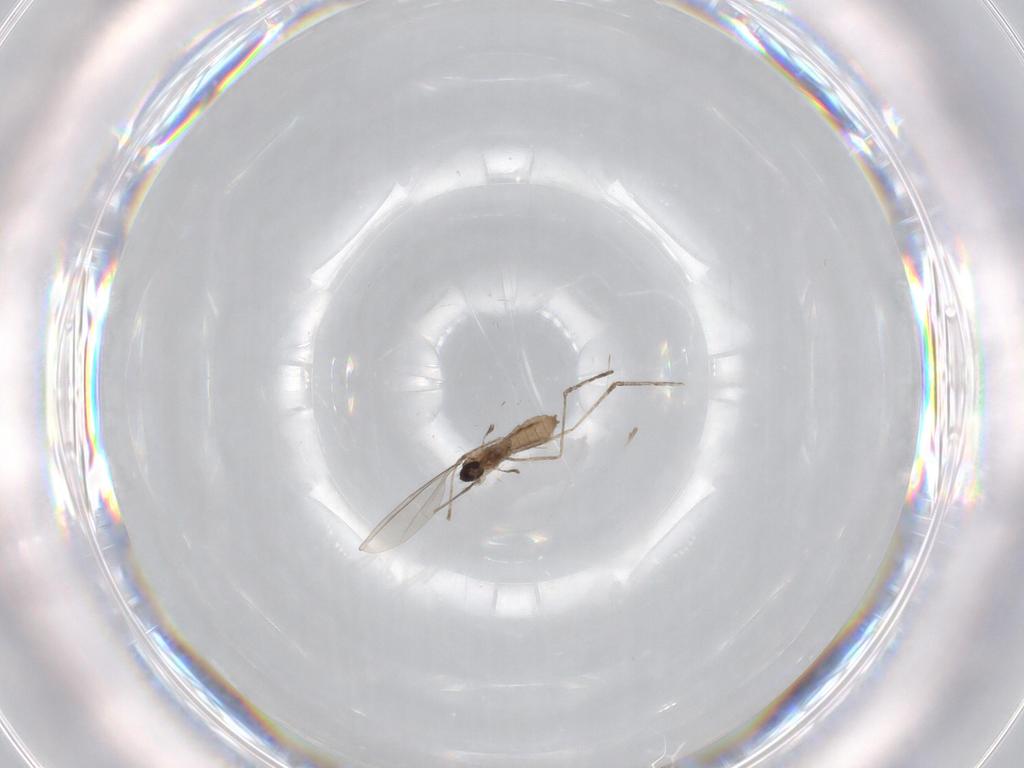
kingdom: Animalia
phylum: Arthropoda
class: Insecta
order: Diptera
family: Cecidomyiidae
